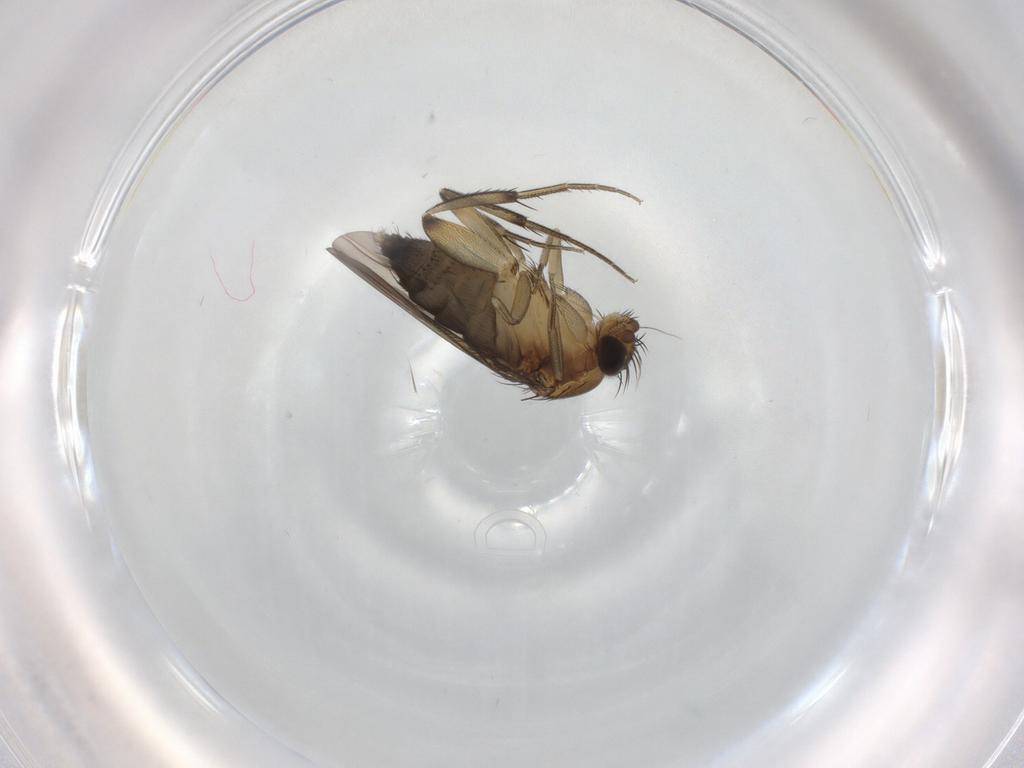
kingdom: Animalia
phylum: Arthropoda
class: Insecta
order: Diptera
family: Phoridae
